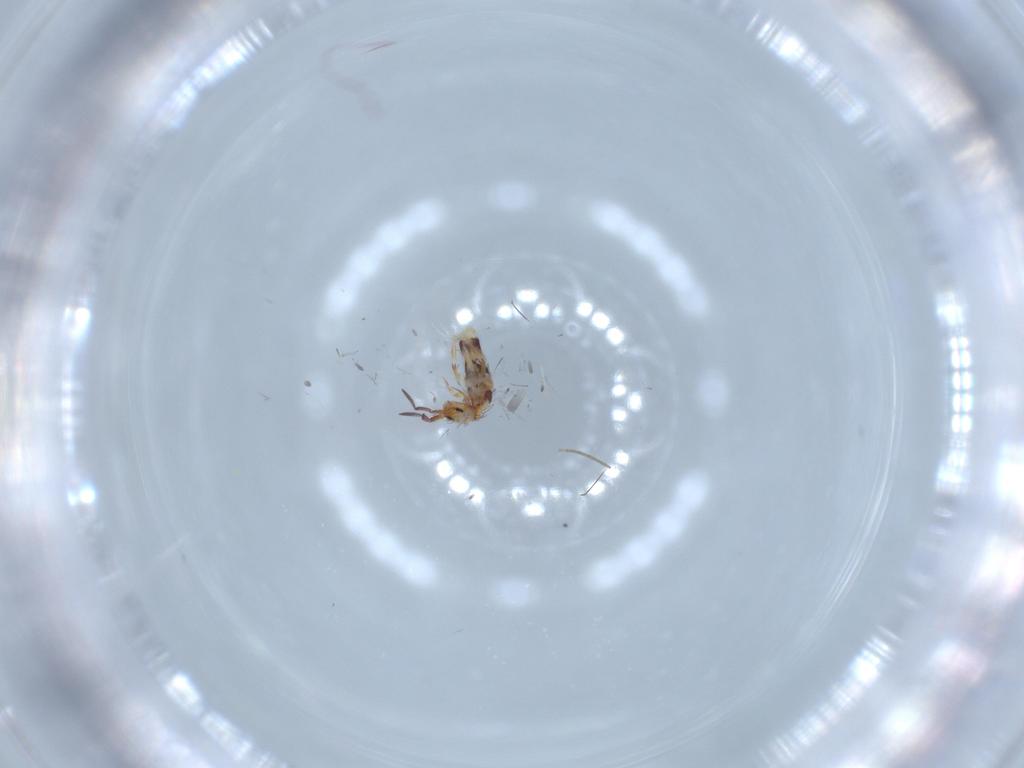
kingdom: Animalia
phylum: Arthropoda
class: Collembola
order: Entomobryomorpha
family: Entomobryidae
